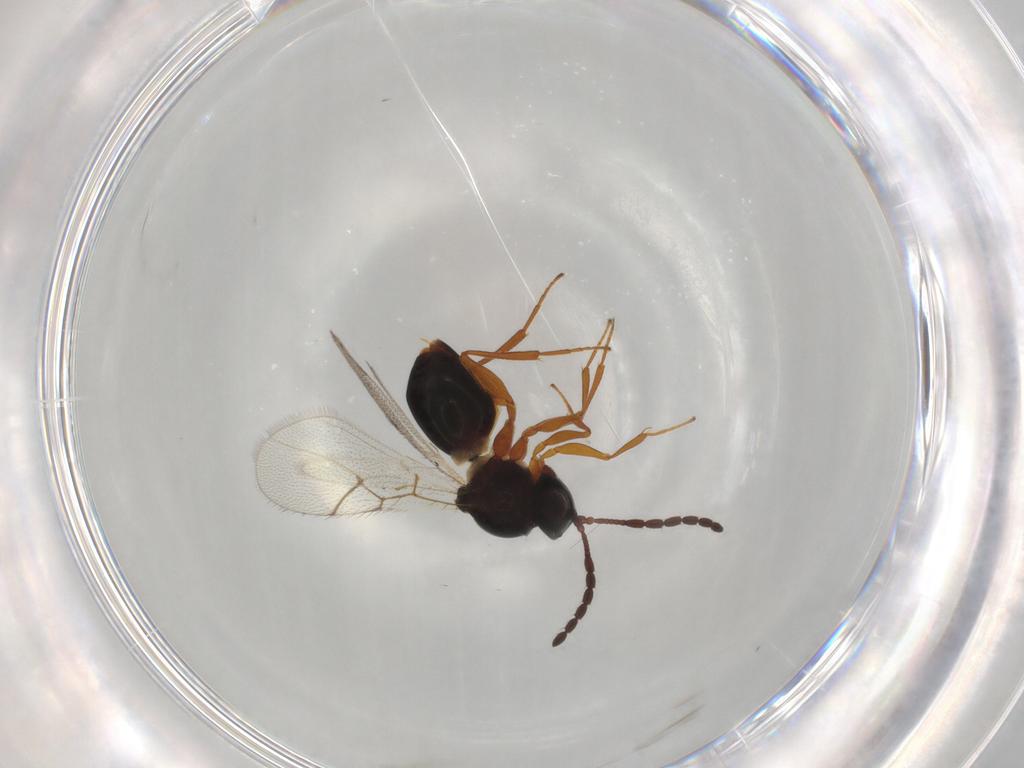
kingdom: Animalia
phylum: Arthropoda
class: Insecta
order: Hymenoptera
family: Figitidae
